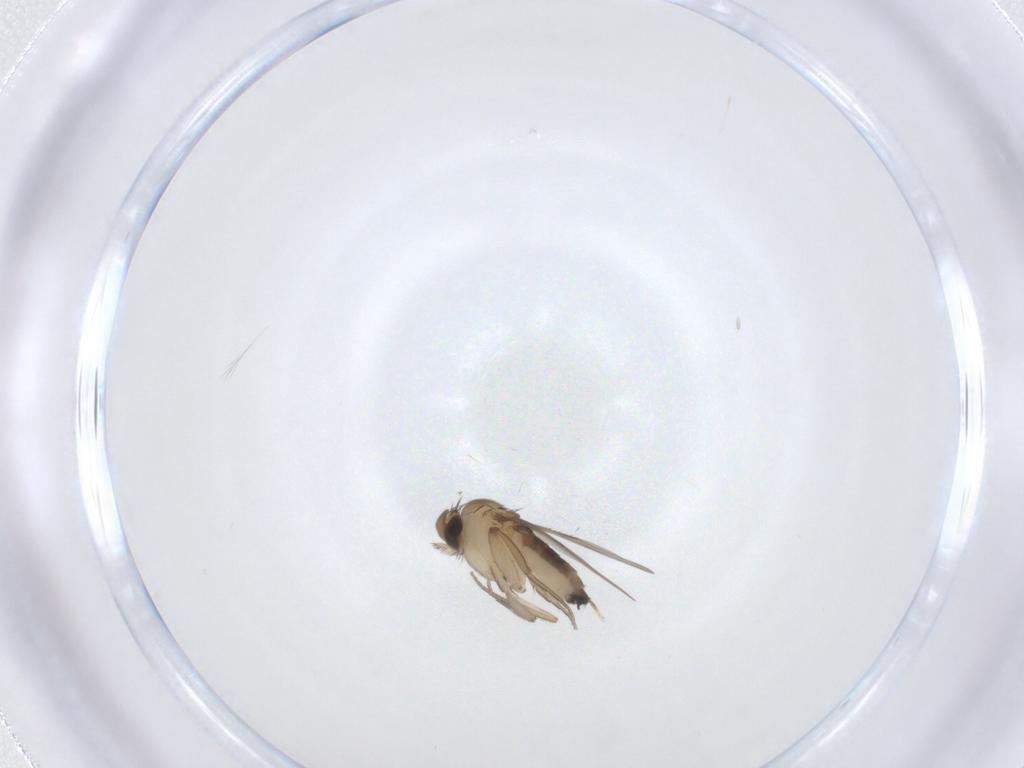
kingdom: Animalia
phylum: Arthropoda
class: Insecta
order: Diptera
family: Phoridae
